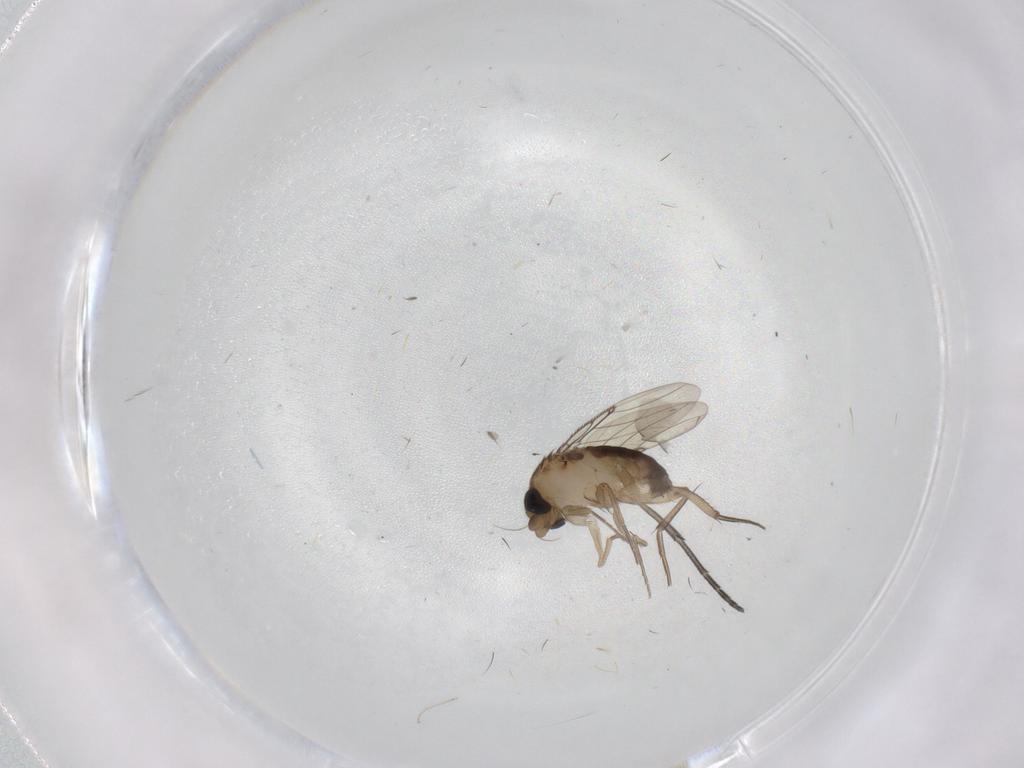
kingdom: Animalia
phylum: Arthropoda
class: Insecta
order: Diptera
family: Phoridae
